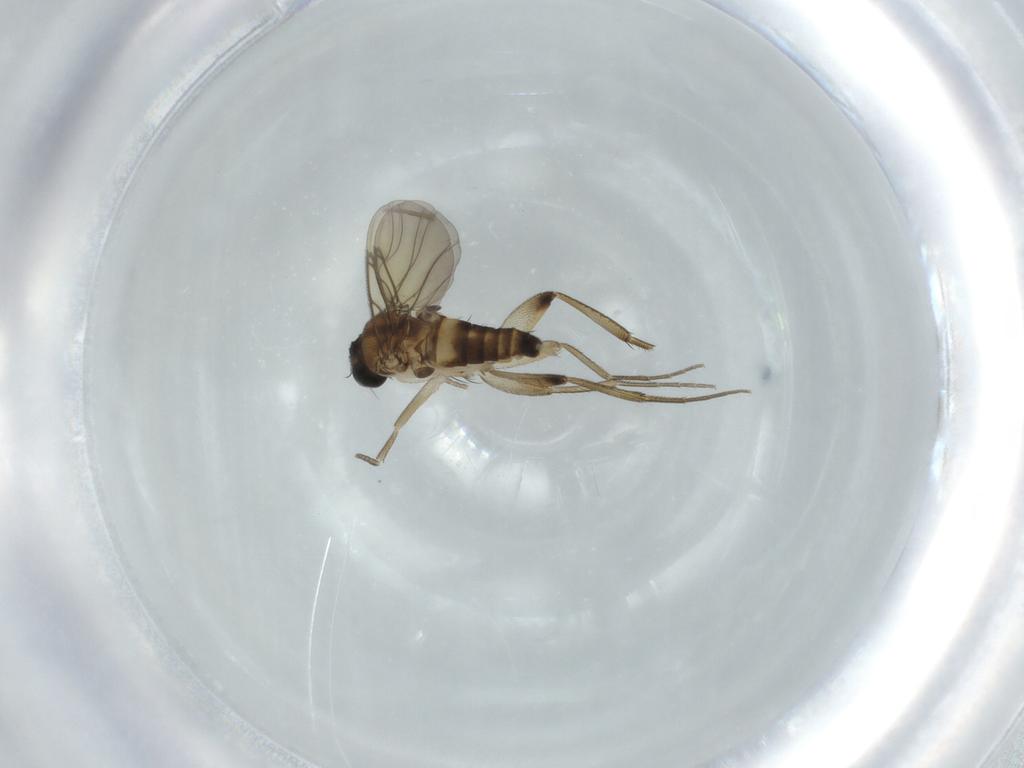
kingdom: Animalia
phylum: Arthropoda
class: Insecta
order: Diptera
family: Phoridae
